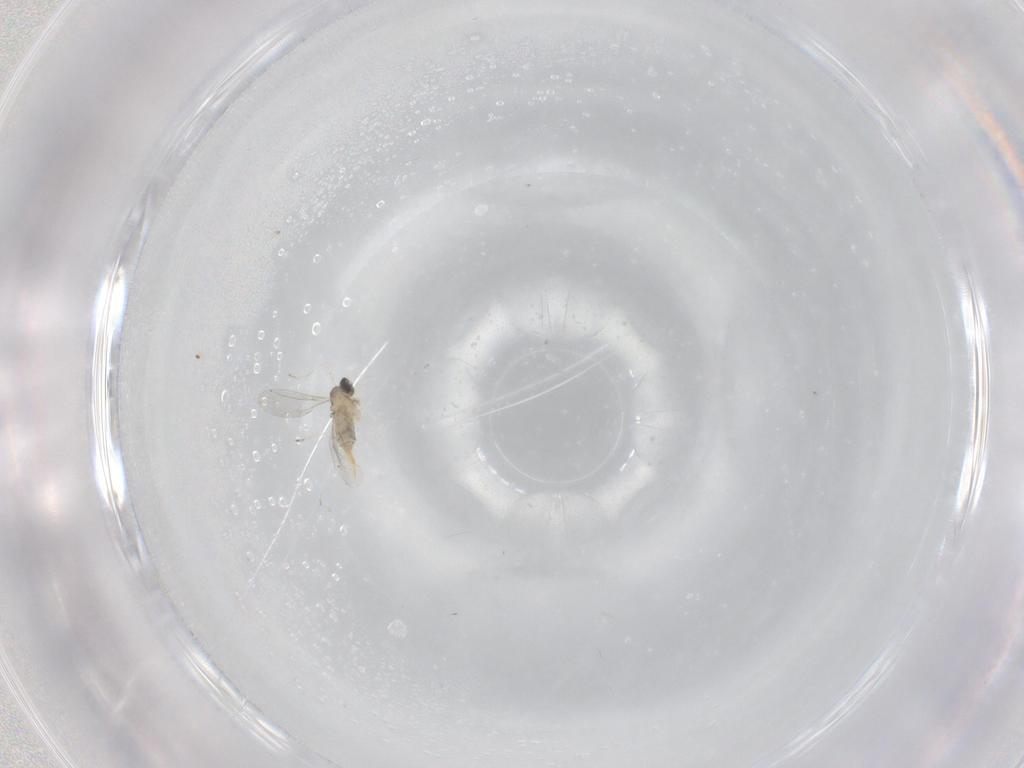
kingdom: Animalia
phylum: Arthropoda
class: Insecta
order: Diptera
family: Cecidomyiidae
